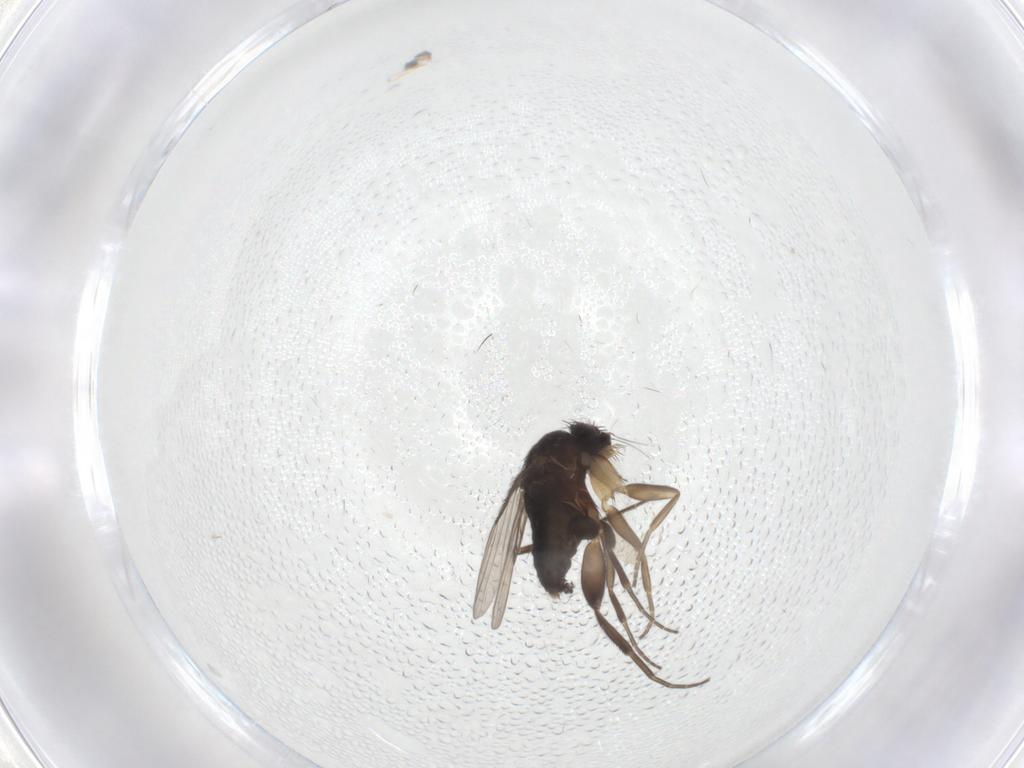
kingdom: Animalia
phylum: Arthropoda
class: Insecta
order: Diptera
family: Phoridae
